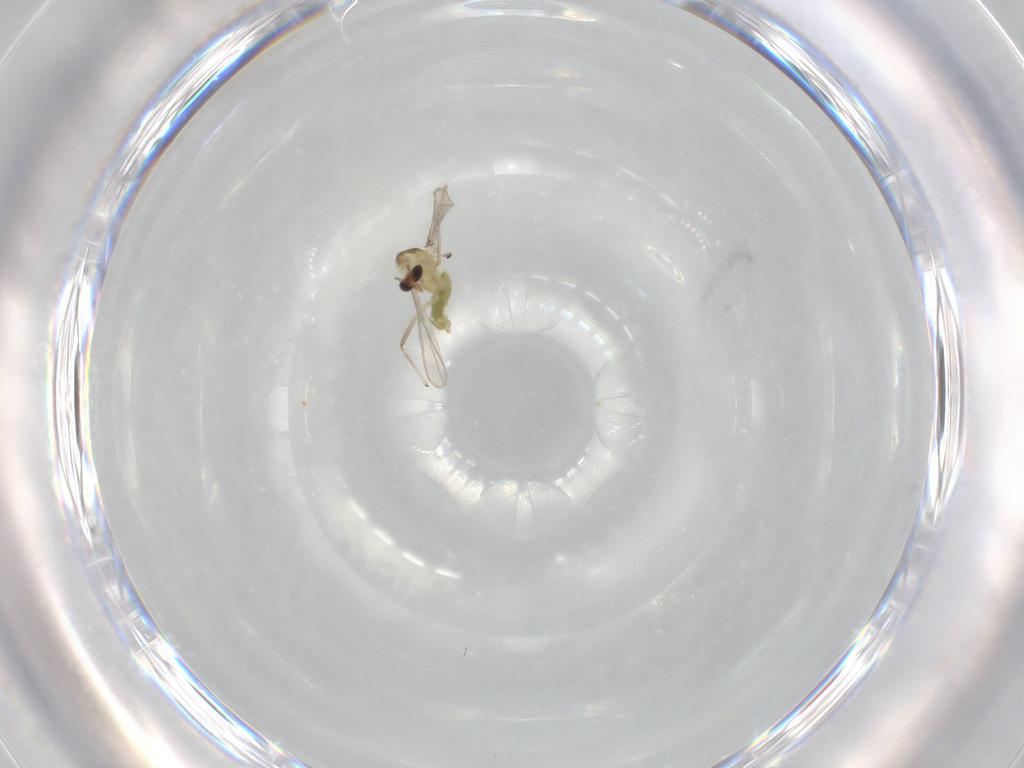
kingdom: Animalia
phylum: Arthropoda
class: Insecta
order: Diptera
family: Chironomidae
